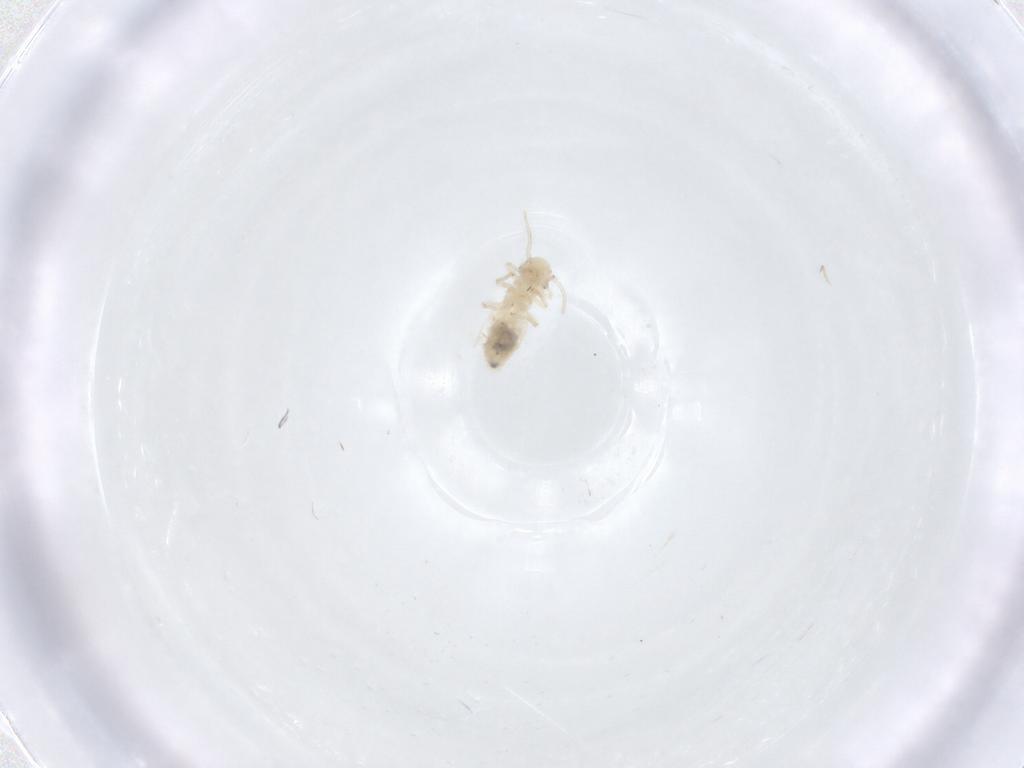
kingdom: Animalia
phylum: Arthropoda
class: Insecta
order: Psocodea
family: Caeciliusidae
